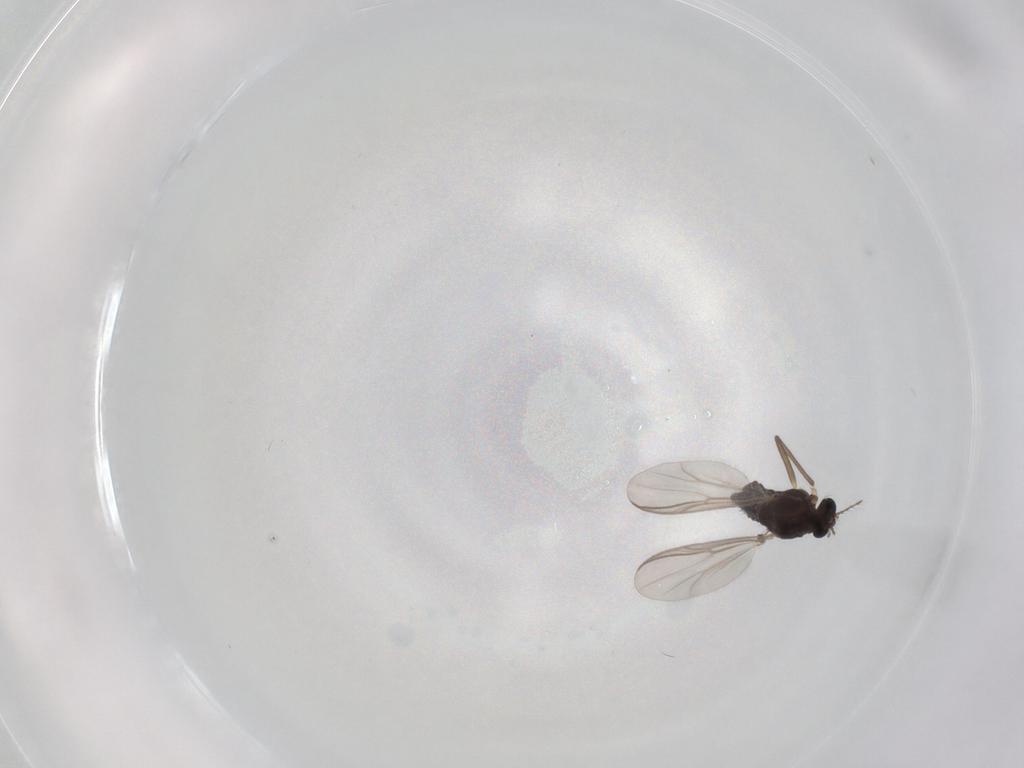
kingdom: Animalia
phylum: Arthropoda
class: Insecta
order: Diptera
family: Chironomidae
